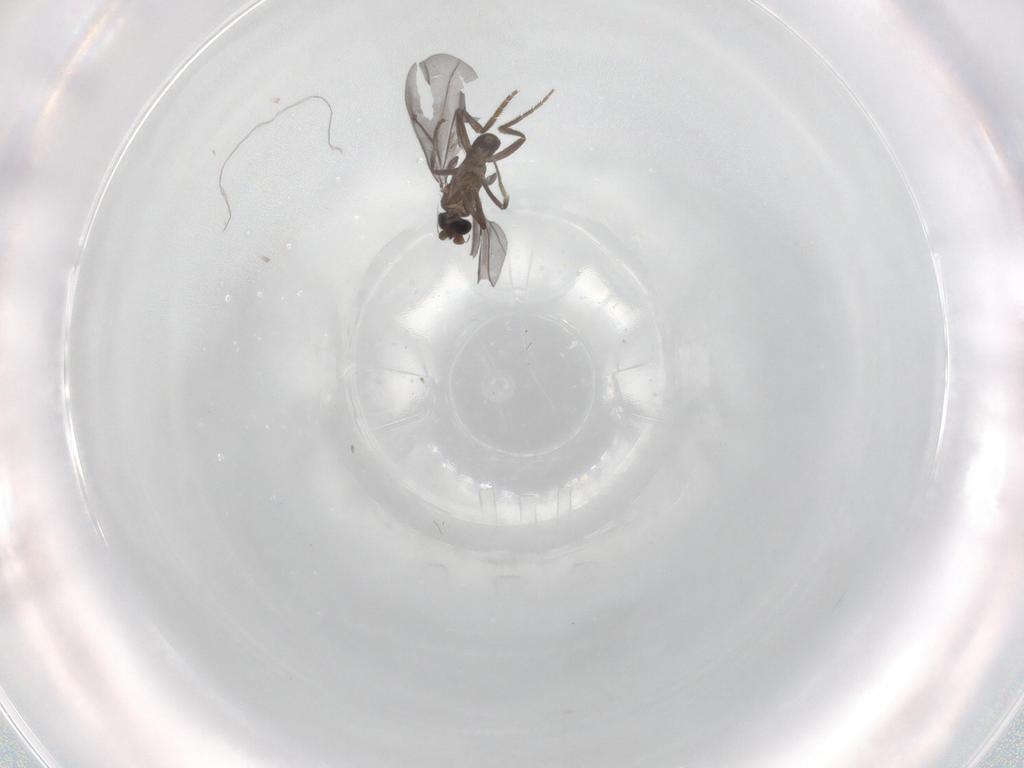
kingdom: Animalia
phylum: Arthropoda
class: Insecta
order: Diptera
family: Phoridae
